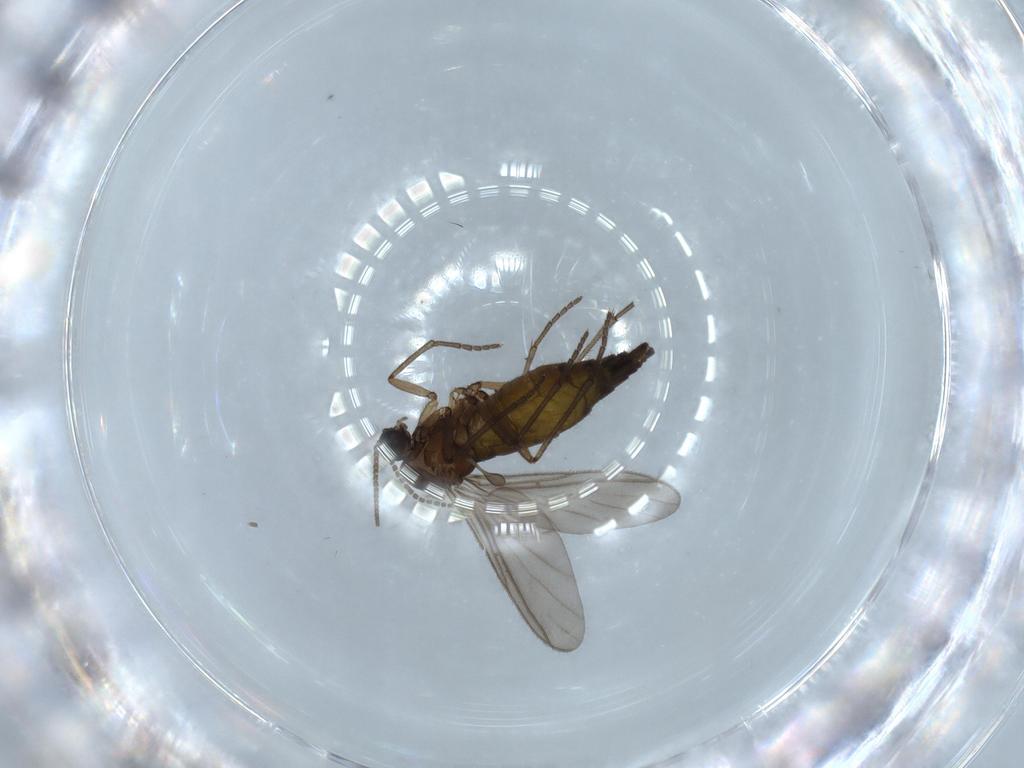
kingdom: Animalia
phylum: Arthropoda
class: Insecta
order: Diptera
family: Sciaridae
